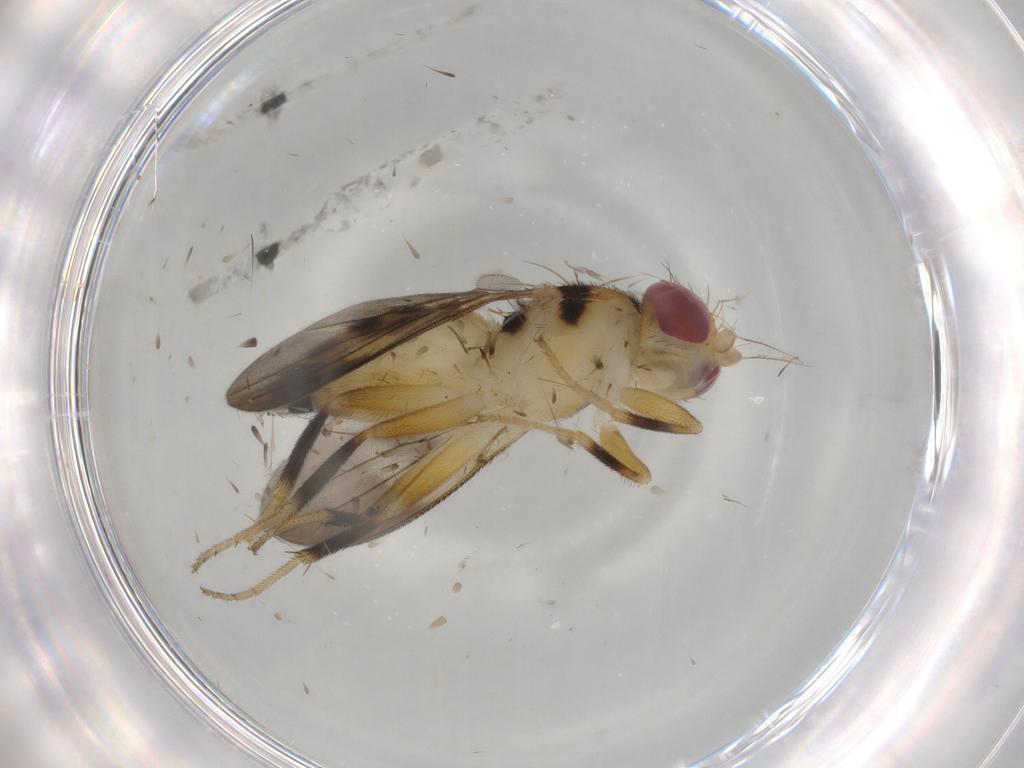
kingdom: Animalia
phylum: Arthropoda
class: Insecta
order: Diptera
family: Clusiidae
